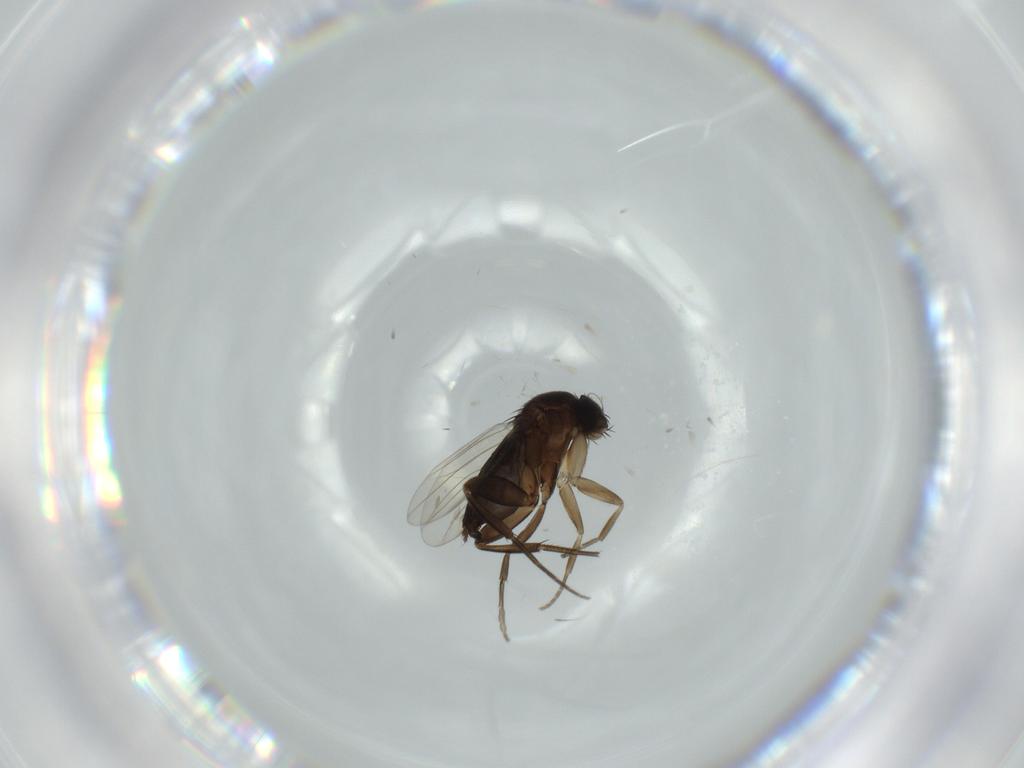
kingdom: Animalia
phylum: Arthropoda
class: Insecta
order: Diptera
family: Phoridae
